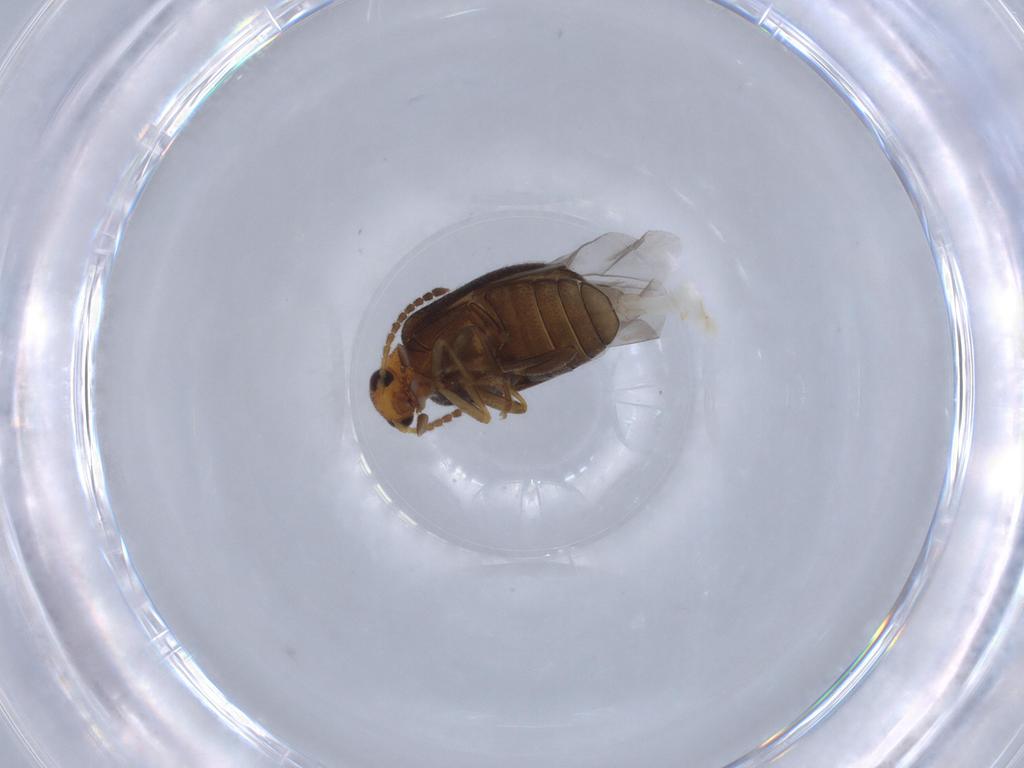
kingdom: Animalia
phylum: Arthropoda
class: Insecta
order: Coleoptera
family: Aderidae
